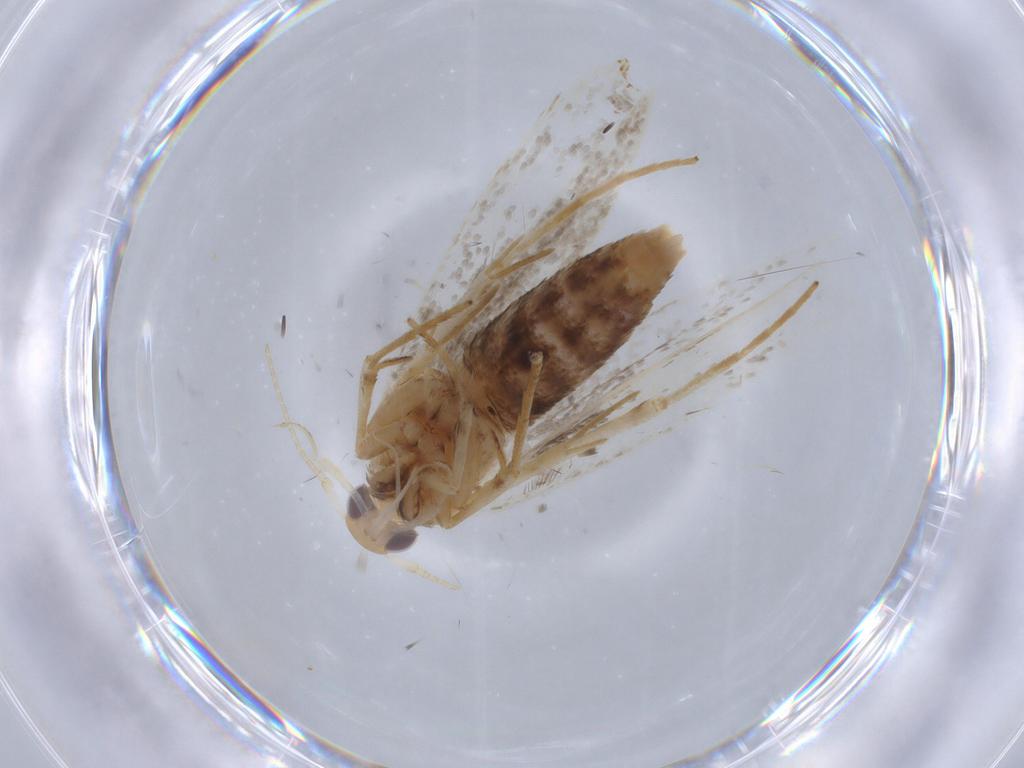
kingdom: Animalia
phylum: Arthropoda
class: Insecta
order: Lepidoptera
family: Cosmopterigidae
